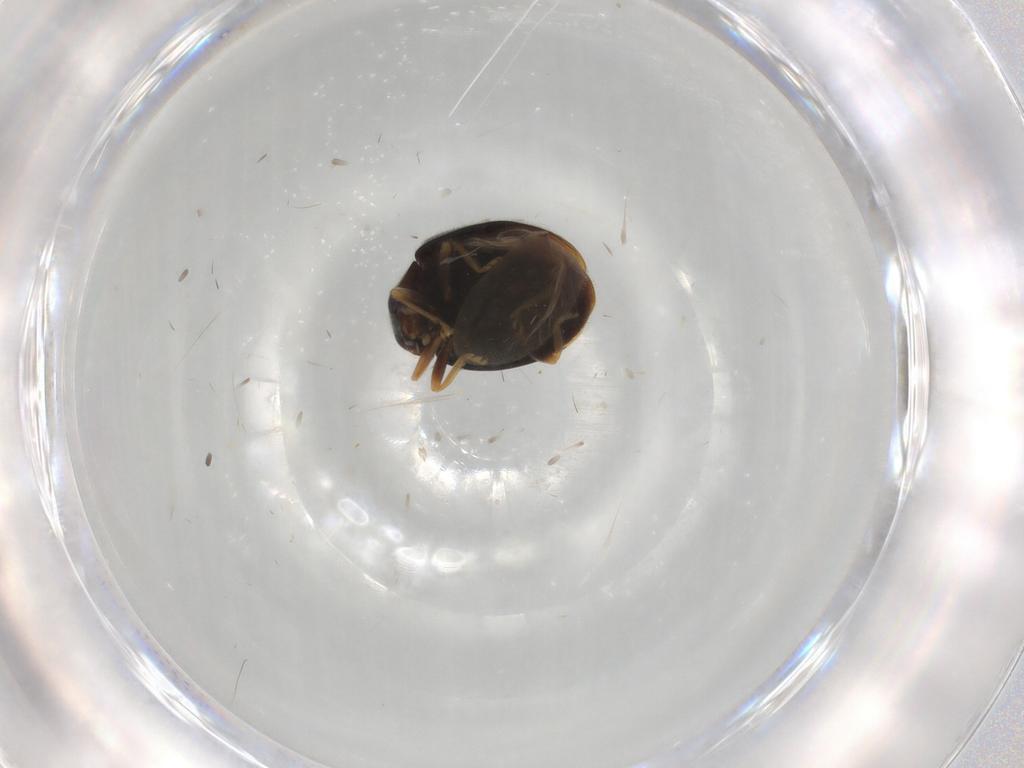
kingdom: Animalia
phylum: Arthropoda
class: Insecta
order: Coleoptera
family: Coccinellidae
